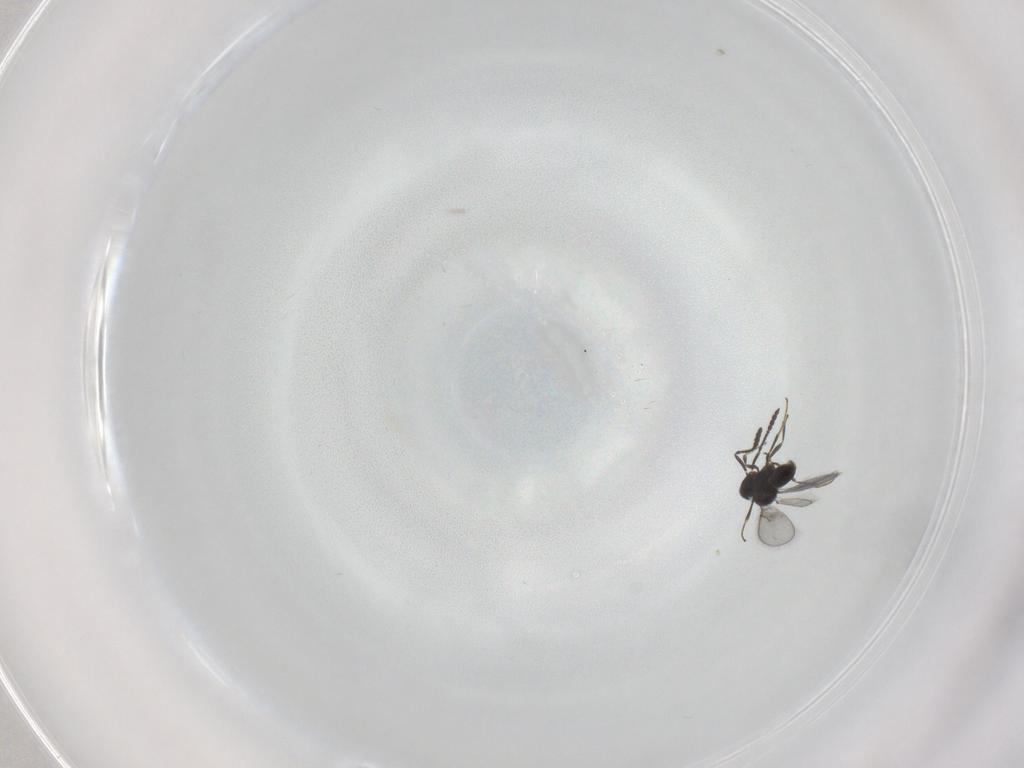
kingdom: Animalia
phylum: Arthropoda
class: Insecta
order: Hymenoptera
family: Scelionidae
